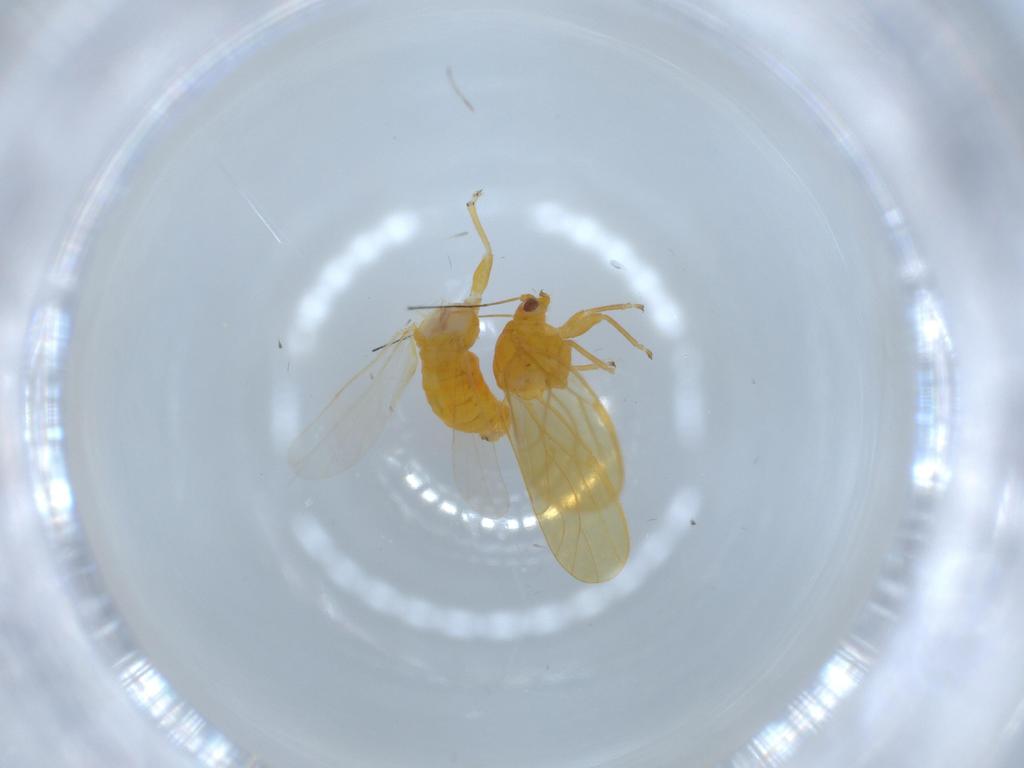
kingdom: Animalia
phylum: Arthropoda
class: Insecta
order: Hemiptera
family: Psyllidae
